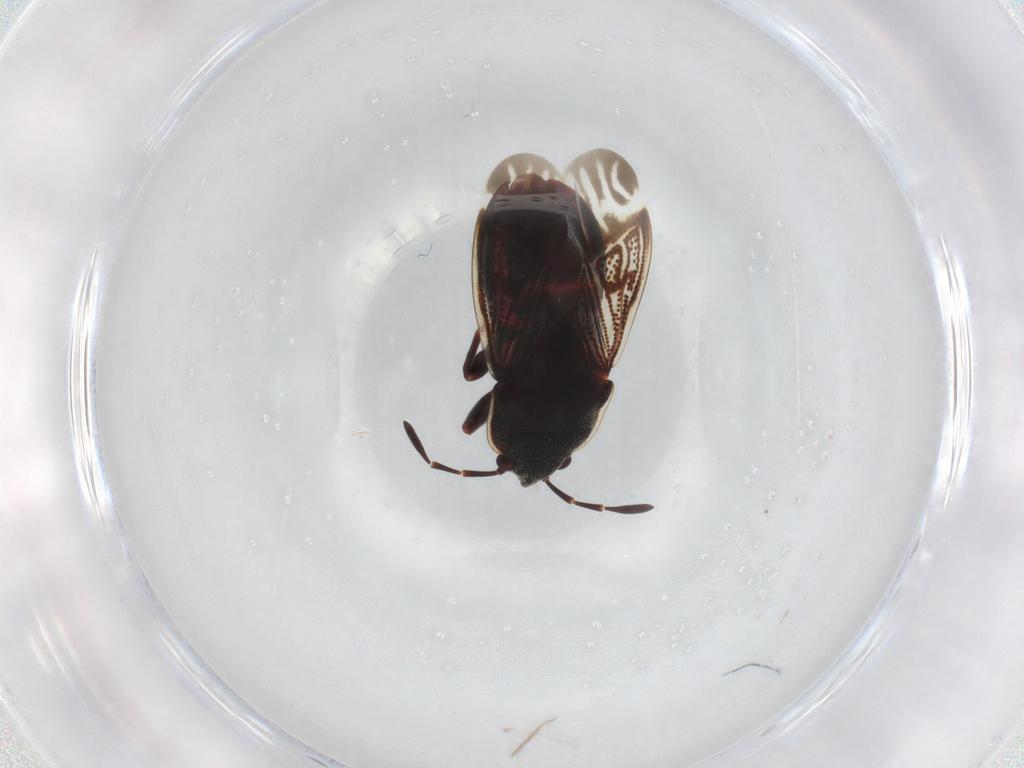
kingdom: Animalia
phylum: Arthropoda
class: Insecta
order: Hemiptera
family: Rhyparochromidae
